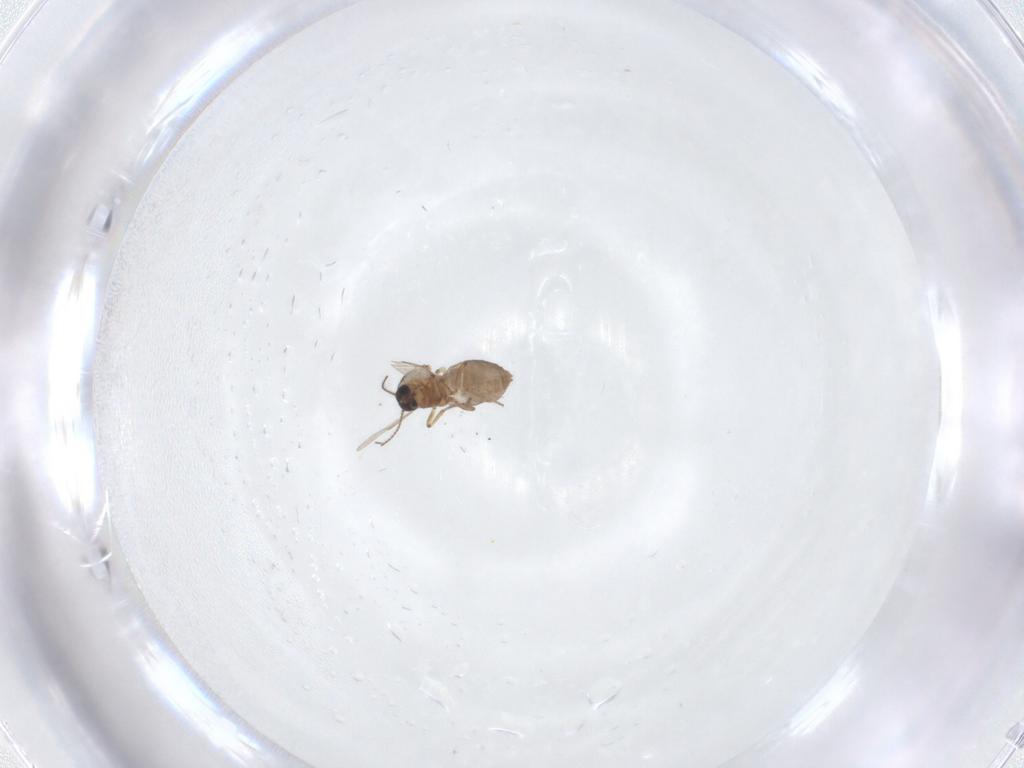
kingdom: Animalia
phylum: Arthropoda
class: Insecta
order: Diptera
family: Ceratopogonidae
